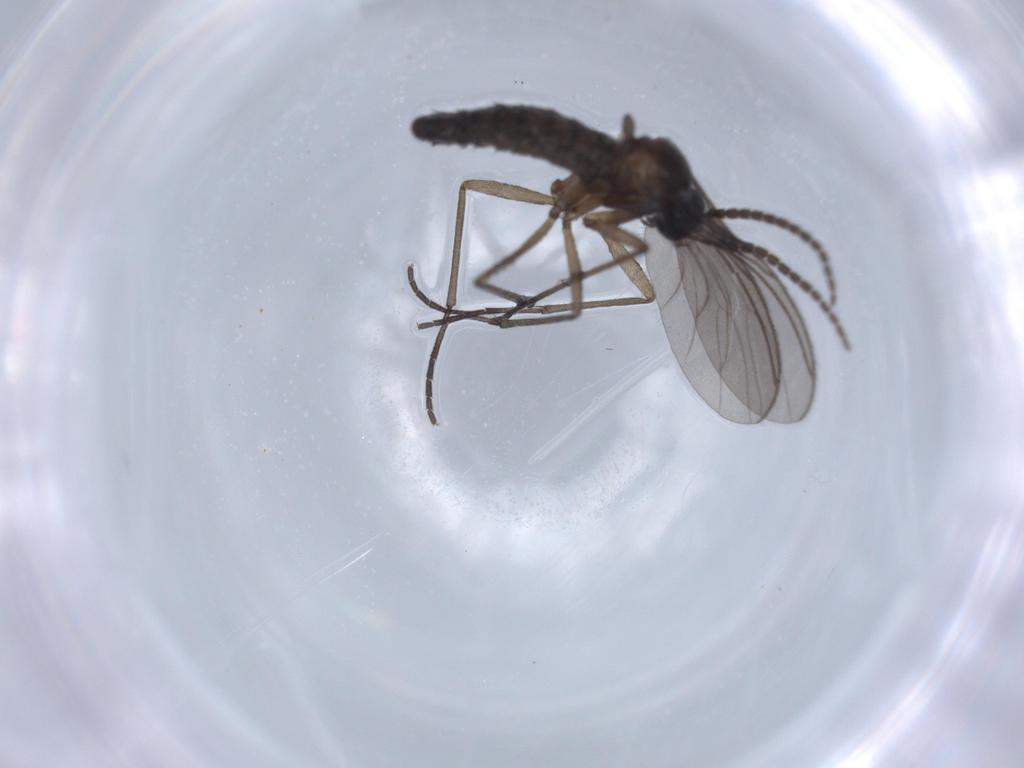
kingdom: Animalia
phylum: Arthropoda
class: Insecta
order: Diptera
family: Sciaridae
